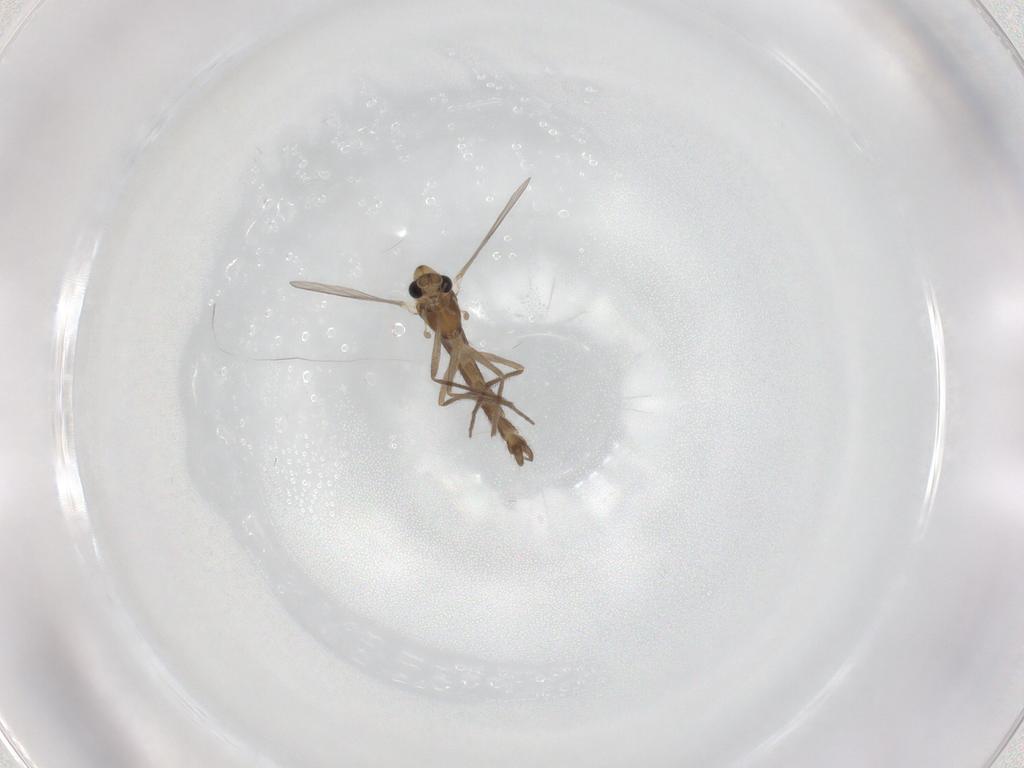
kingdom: Animalia
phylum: Arthropoda
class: Insecta
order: Diptera
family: Chironomidae
